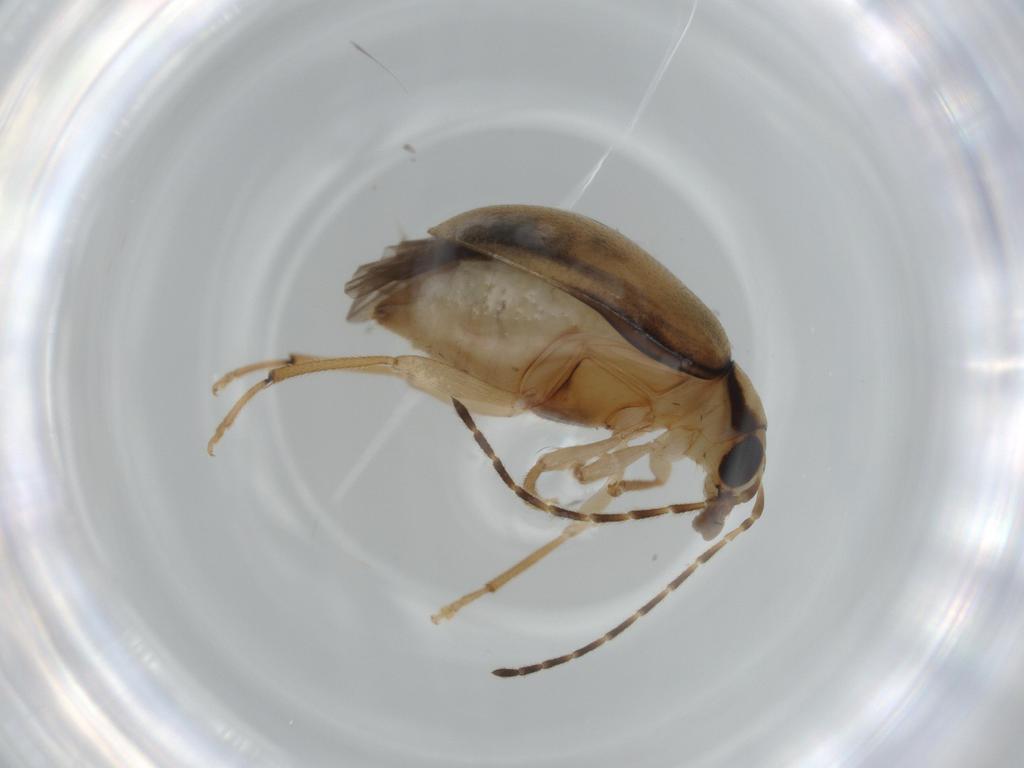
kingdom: Animalia
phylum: Arthropoda
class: Insecta
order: Coleoptera
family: Chrysomelidae
